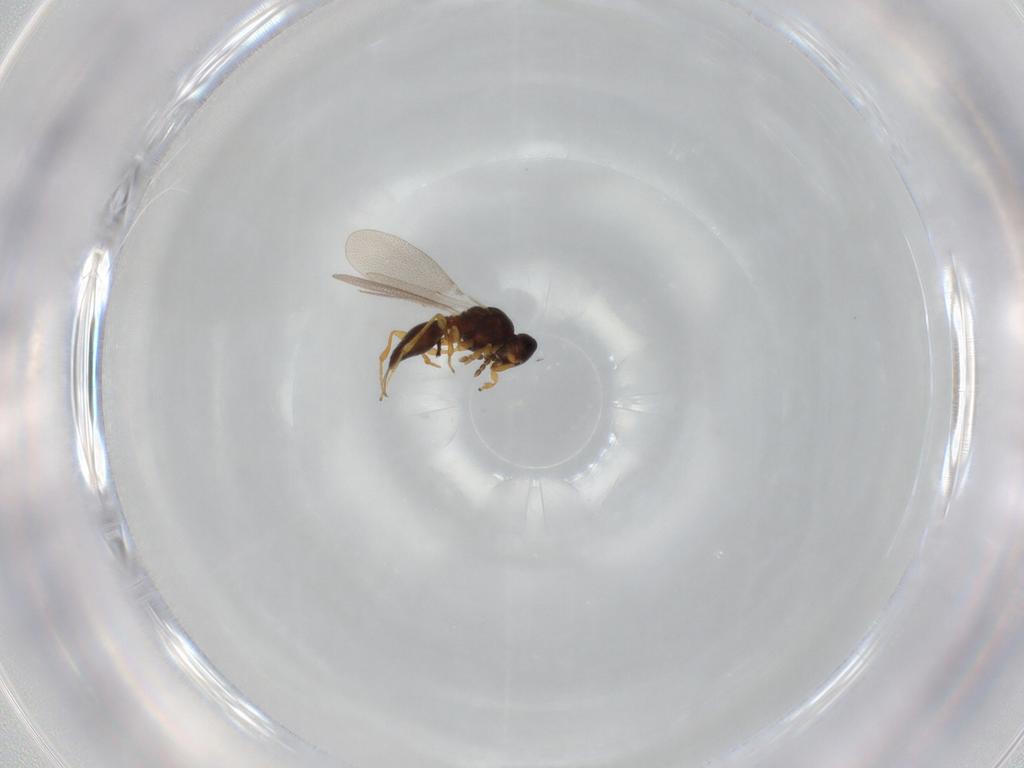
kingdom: Animalia
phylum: Arthropoda
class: Insecta
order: Diptera
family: Mythicomyiidae
